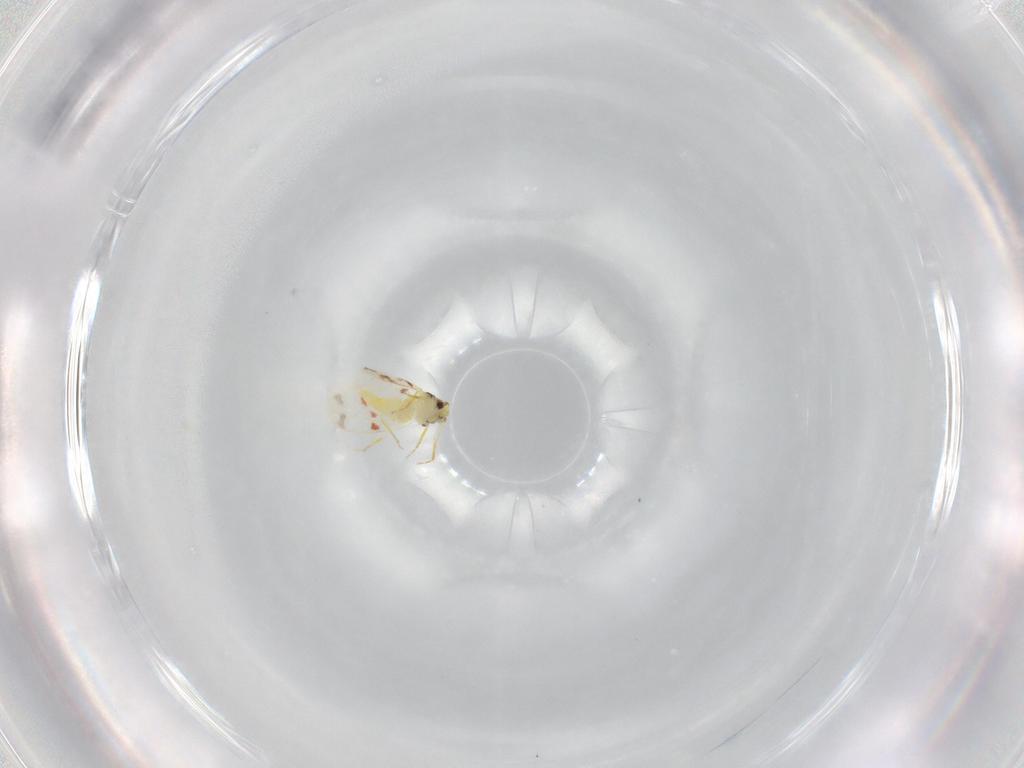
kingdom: Animalia
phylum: Arthropoda
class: Insecta
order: Hemiptera
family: Aleyrodidae
